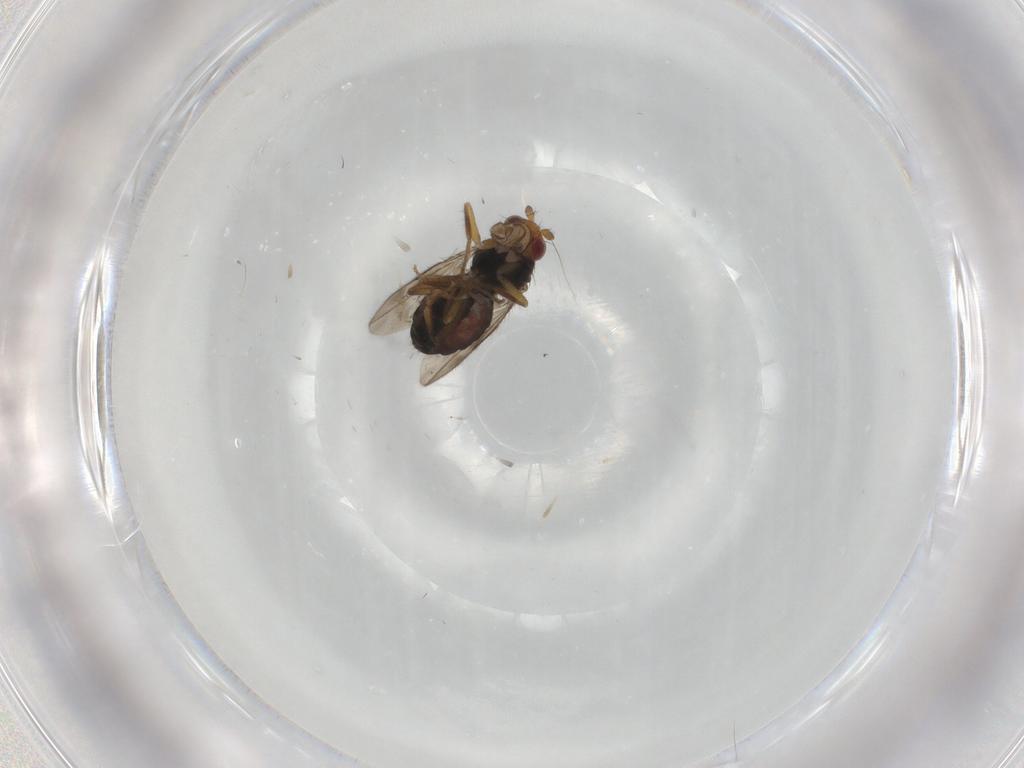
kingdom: Animalia
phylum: Arthropoda
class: Insecta
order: Diptera
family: Sphaeroceridae
